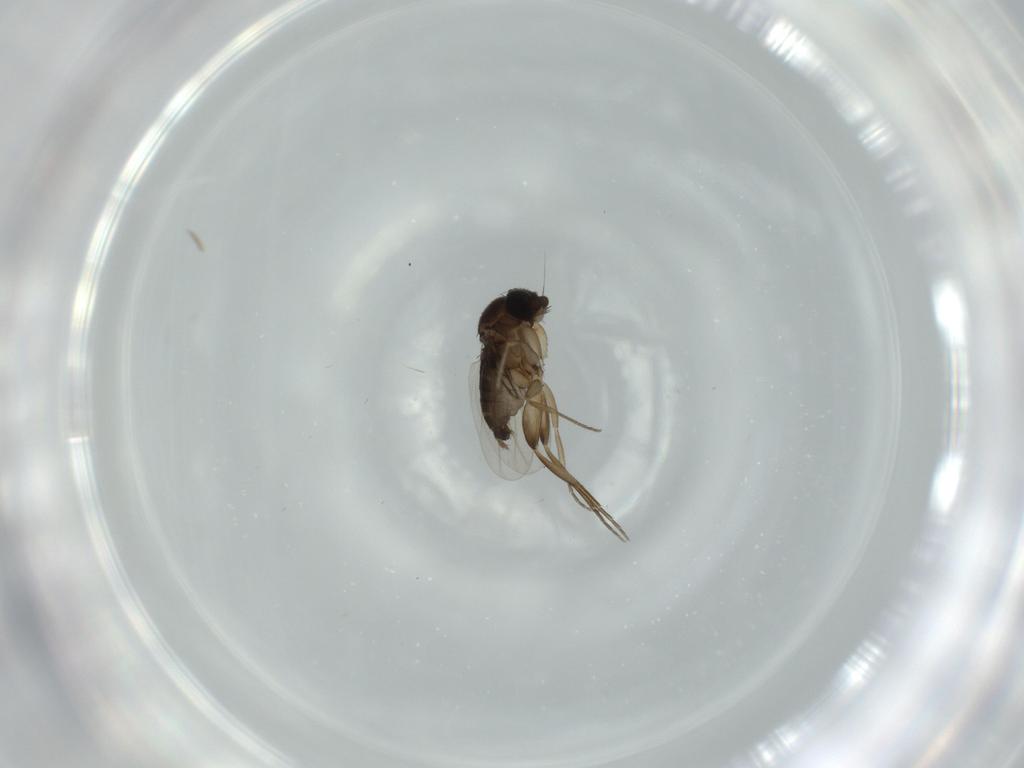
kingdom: Animalia
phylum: Arthropoda
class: Insecta
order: Diptera
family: Phoridae
